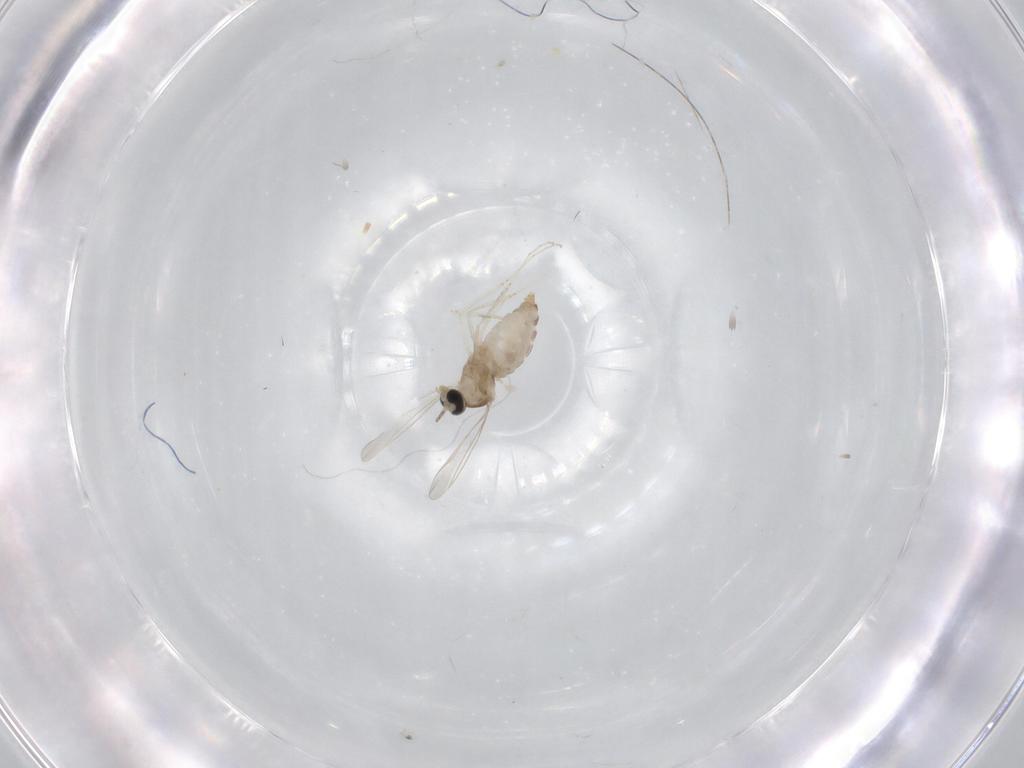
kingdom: Animalia
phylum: Arthropoda
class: Insecta
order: Diptera
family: Cecidomyiidae
